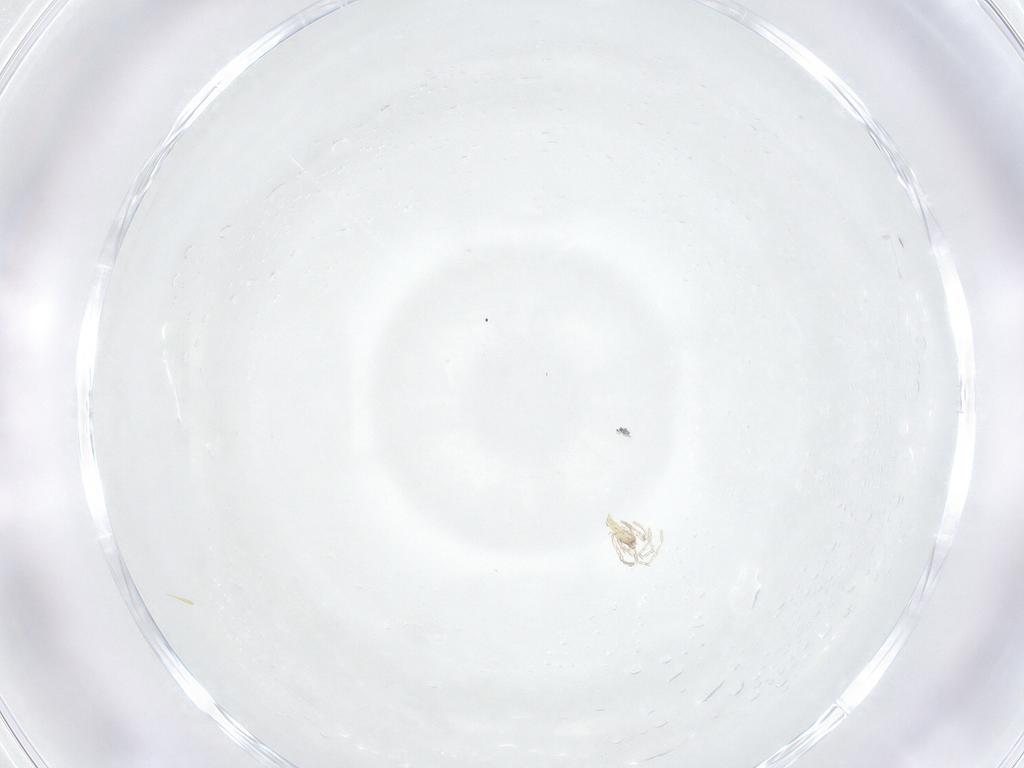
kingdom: Animalia
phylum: Arthropoda
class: Arachnida
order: Trombidiformes
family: Erythraeidae
